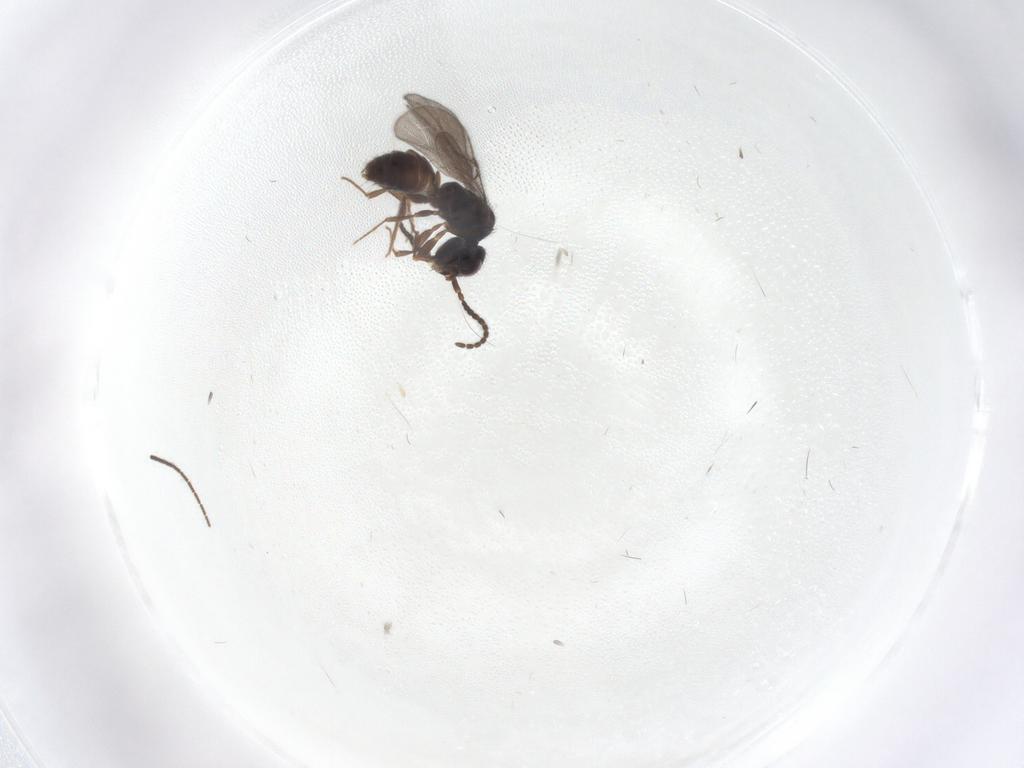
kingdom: Animalia
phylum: Arthropoda
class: Insecta
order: Hymenoptera
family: Bethylidae
